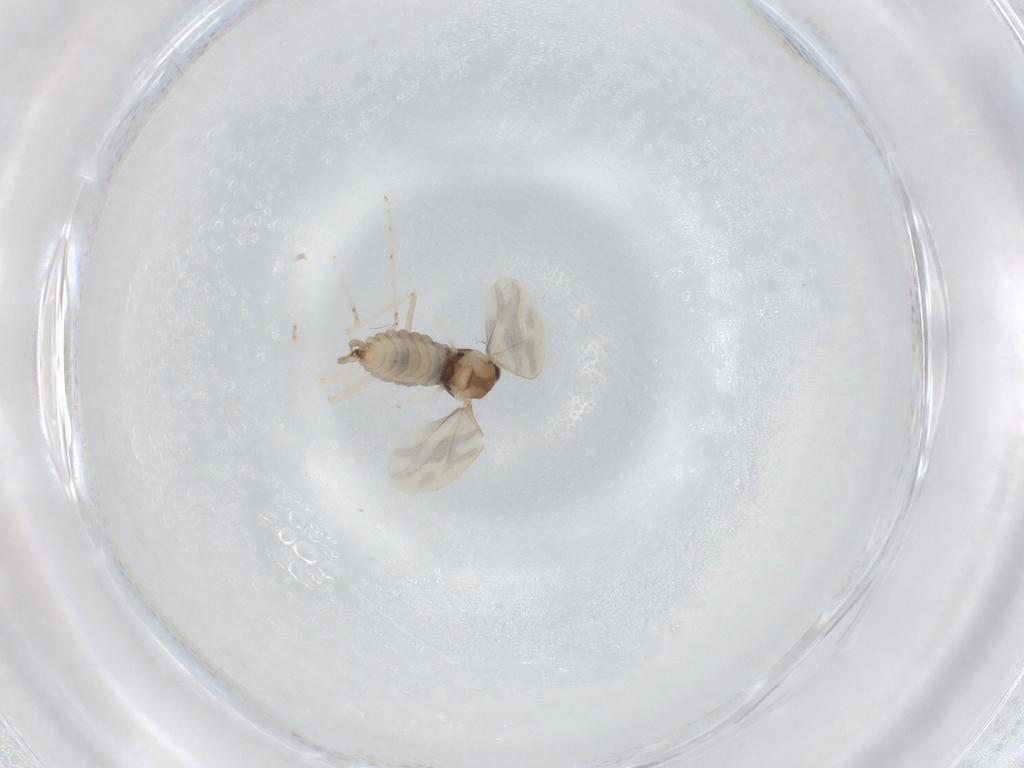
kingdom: Animalia
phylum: Arthropoda
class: Insecta
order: Diptera
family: Cecidomyiidae
